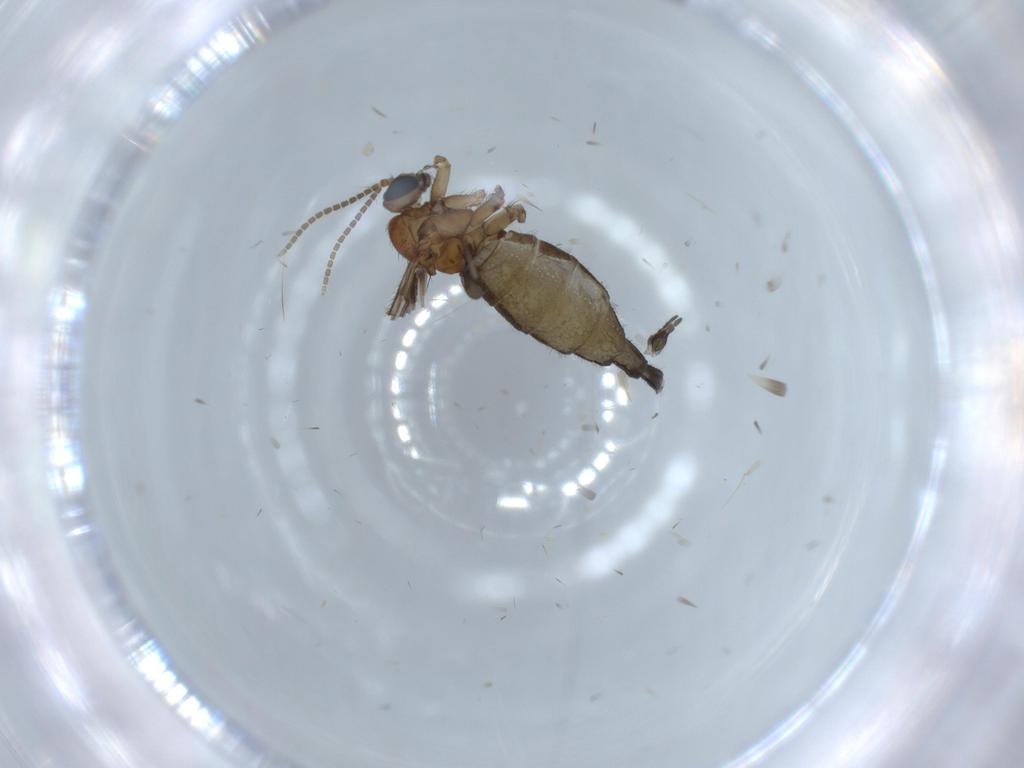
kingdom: Animalia
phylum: Arthropoda
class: Insecta
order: Diptera
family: Sciaridae
